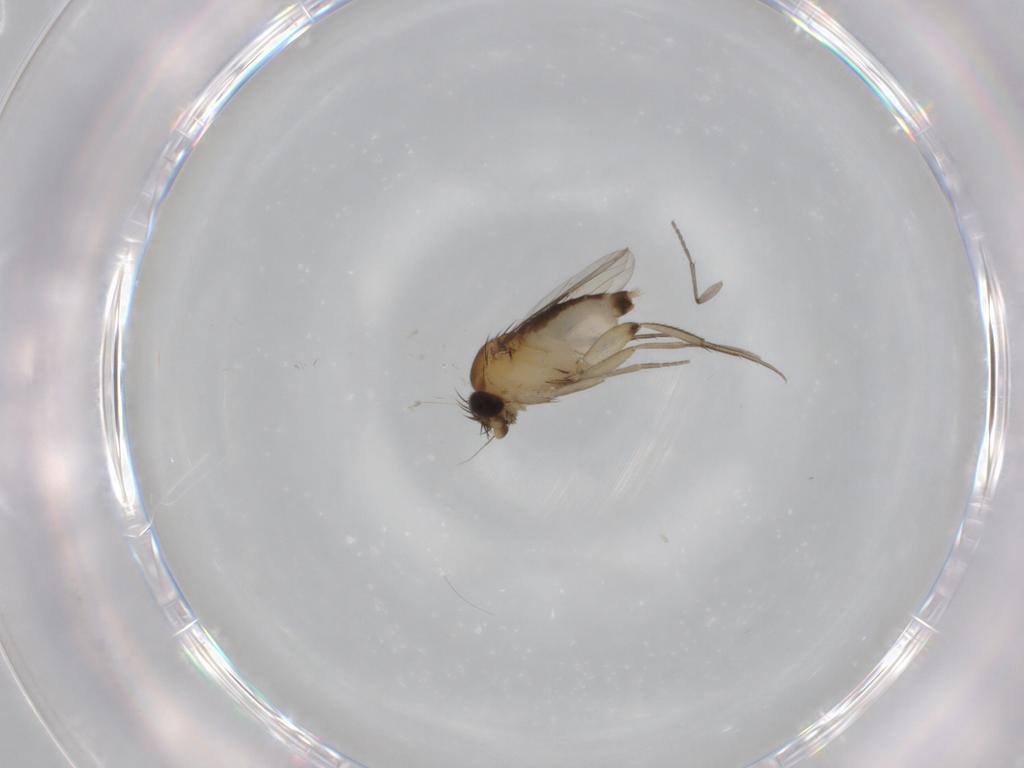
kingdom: Animalia
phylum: Arthropoda
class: Insecta
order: Diptera
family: Phoridae
